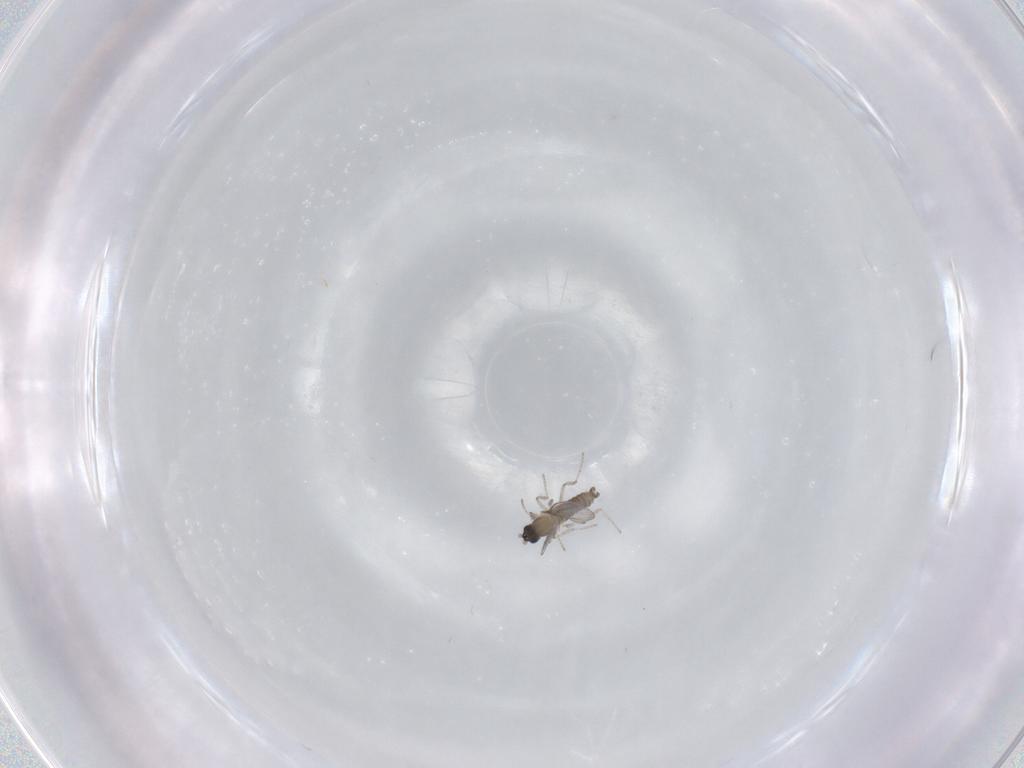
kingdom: Animalia
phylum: Arthropoda
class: Insecta
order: Diptera
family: Cecidomyiidae
